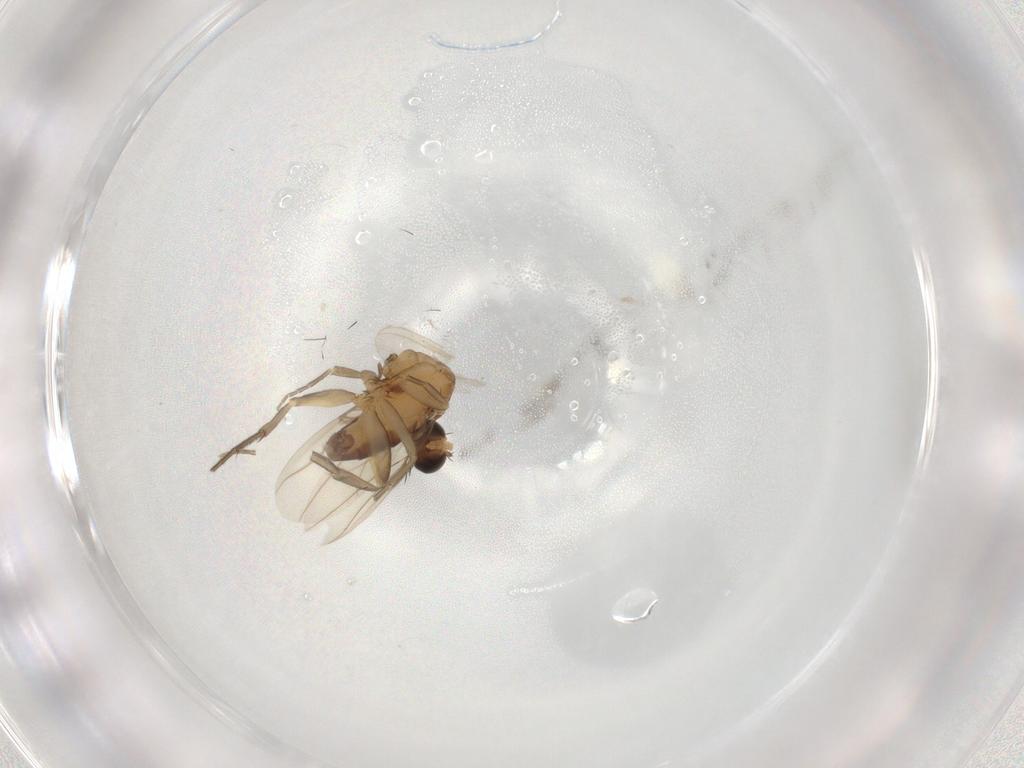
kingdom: Animalia
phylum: Arthropoda
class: Insecta
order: Diptera
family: Phoridae
